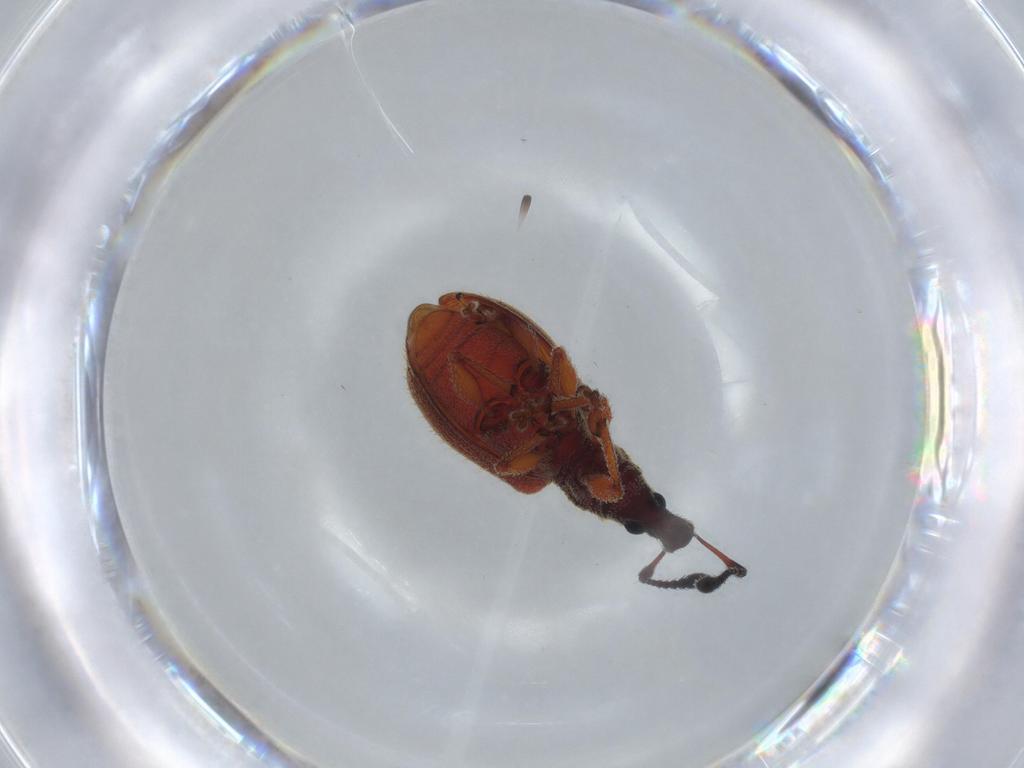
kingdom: Animalia
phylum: Arthropoda
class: Insecta
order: Coleoptera
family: Curculionidae
